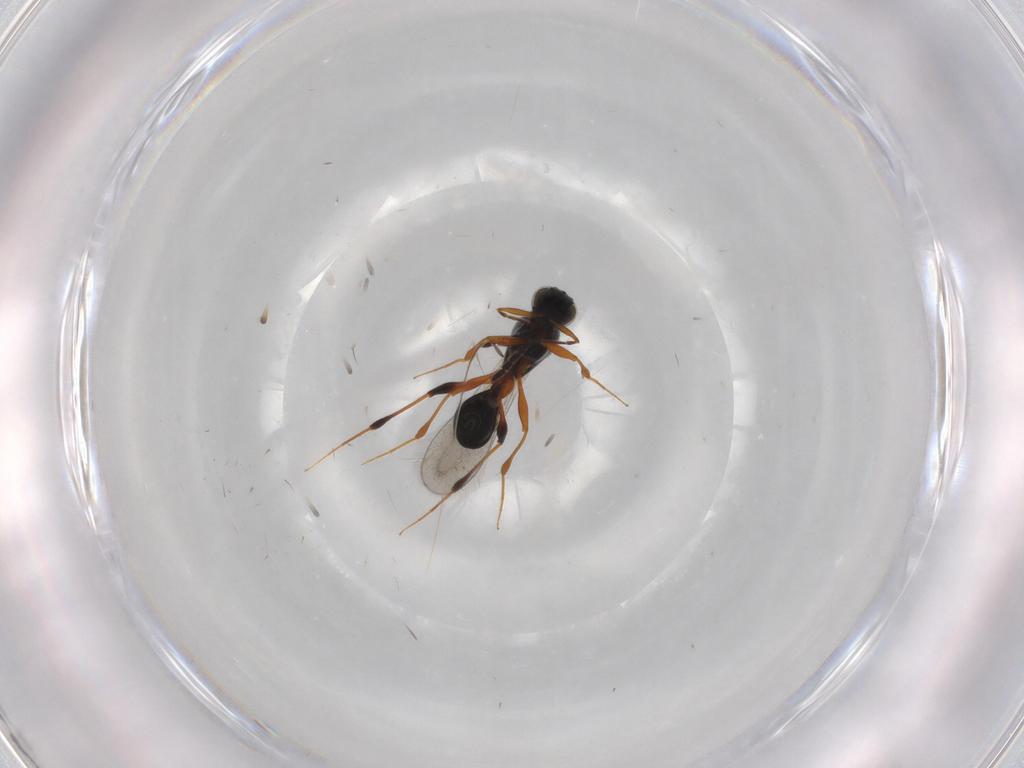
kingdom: Animalia
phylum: Arthropoda
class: Insecta
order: Hymenoptera
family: Platygastridae
